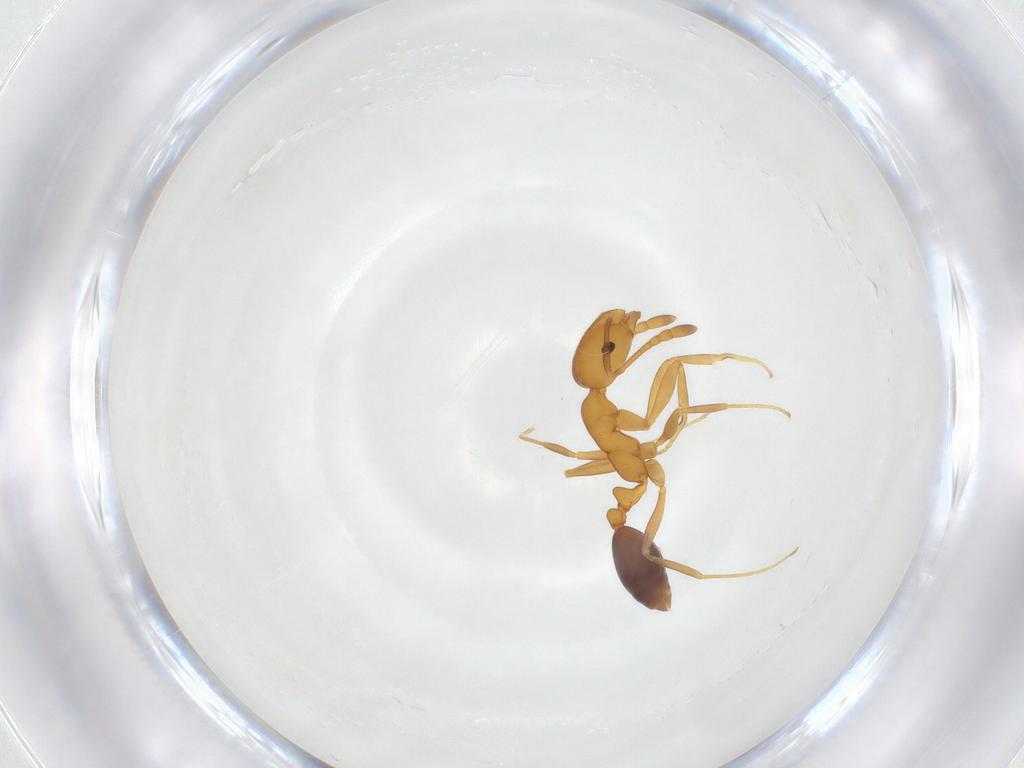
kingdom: Animalia
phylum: Arthropoda
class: Insecta
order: Hymenoptera
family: Formicidae
